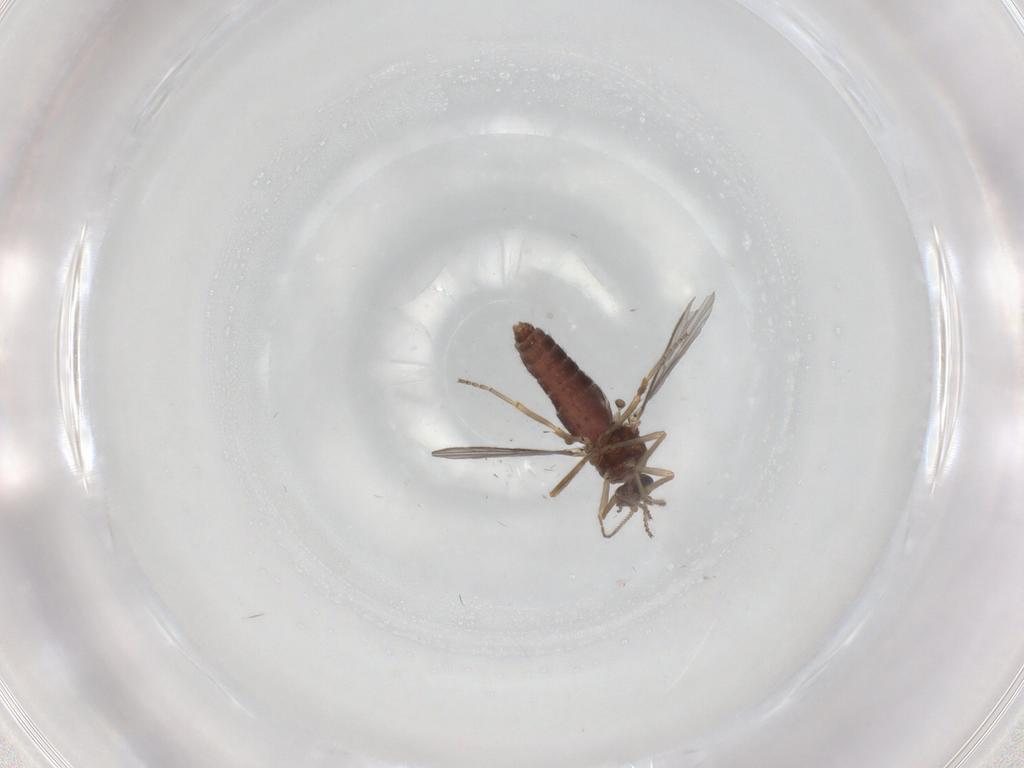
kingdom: Animalia
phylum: Arthropoda
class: Insecta
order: Diptera
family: Ceratopogonidae
